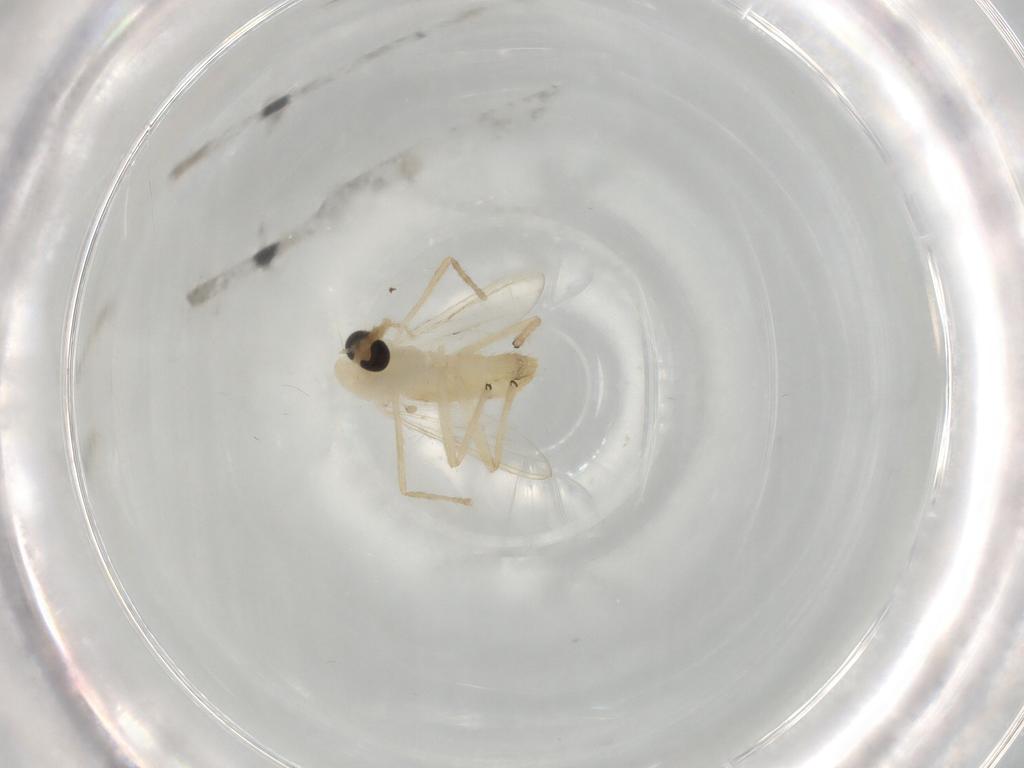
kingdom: Animalia
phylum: Arthropoda
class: Insecta
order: Diptera
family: Chironomidae
